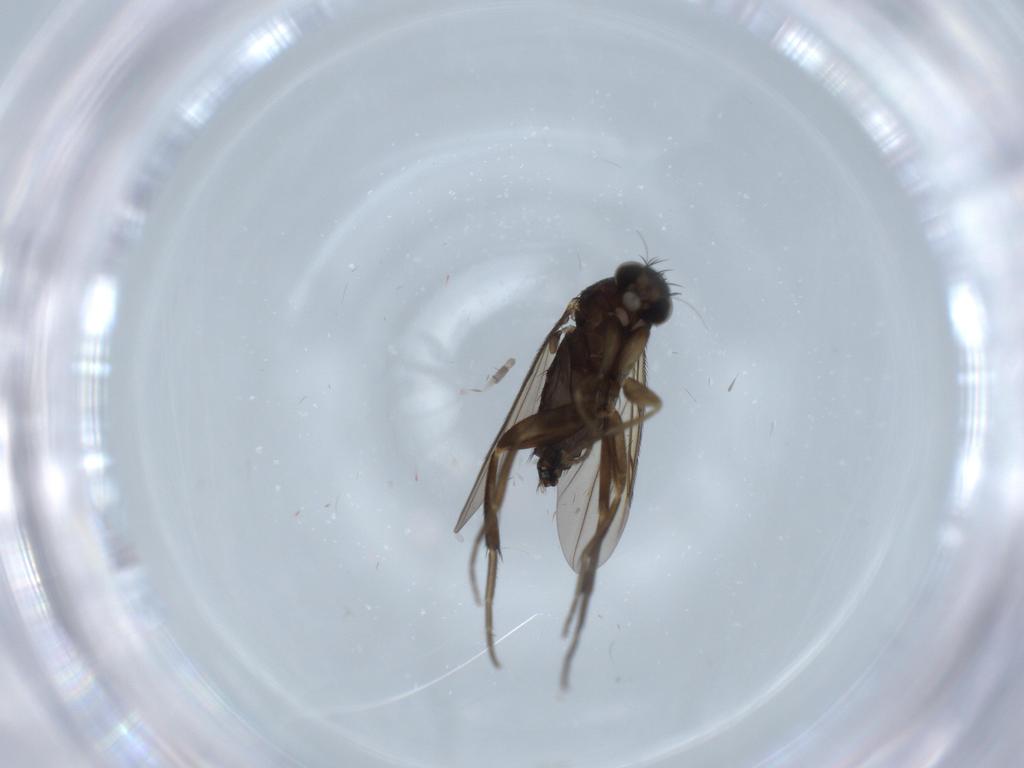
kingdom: Animalia
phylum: Arthropoda
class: Insecta
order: Diptera
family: Phoridae
